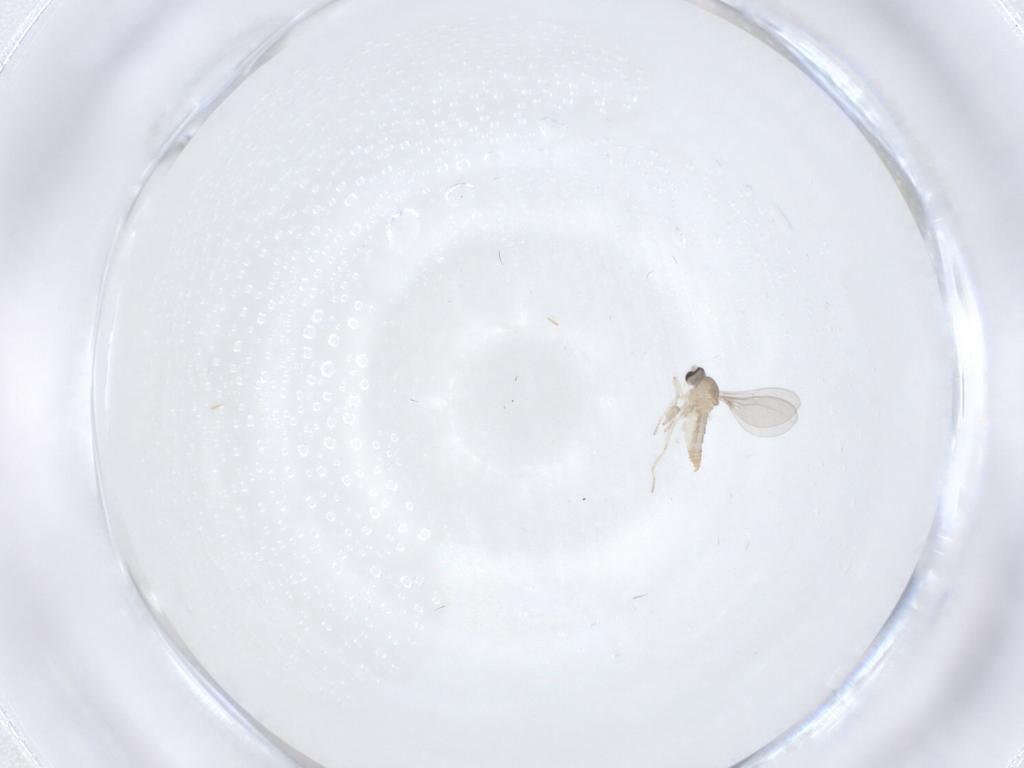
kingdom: Animalia
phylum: Arthropoda
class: Insecta
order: Diptera
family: Cecidomyiidae
